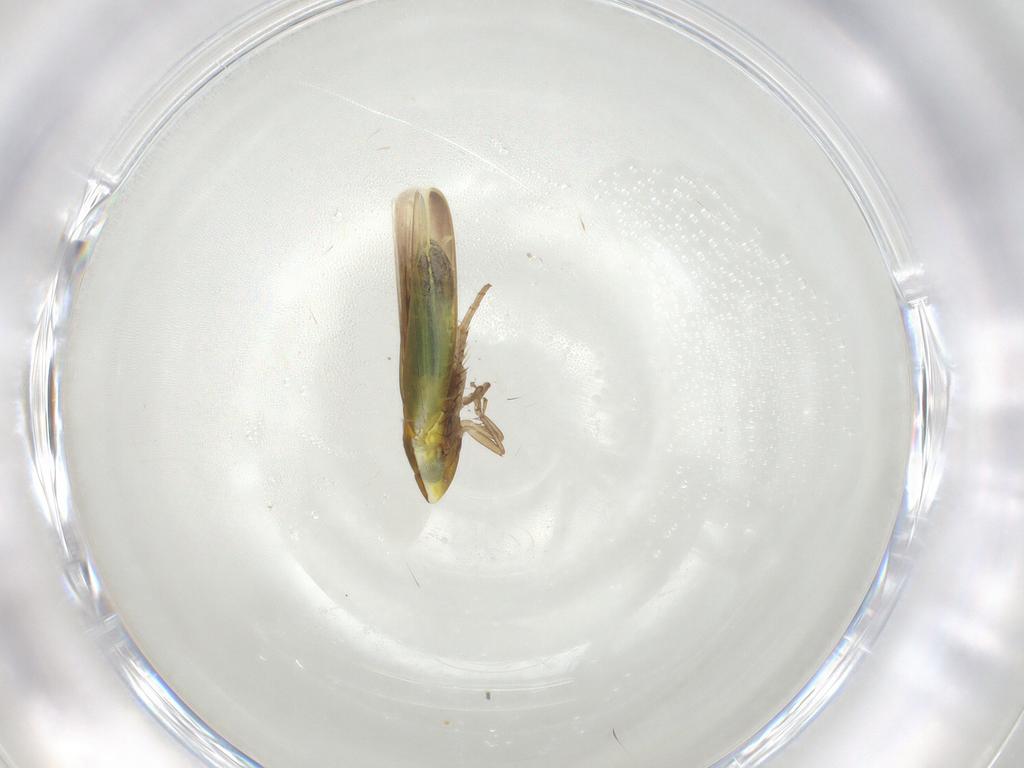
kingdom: Animalia
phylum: Arthropoda
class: Insecta
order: Hemiptera
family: Cicadellidae
